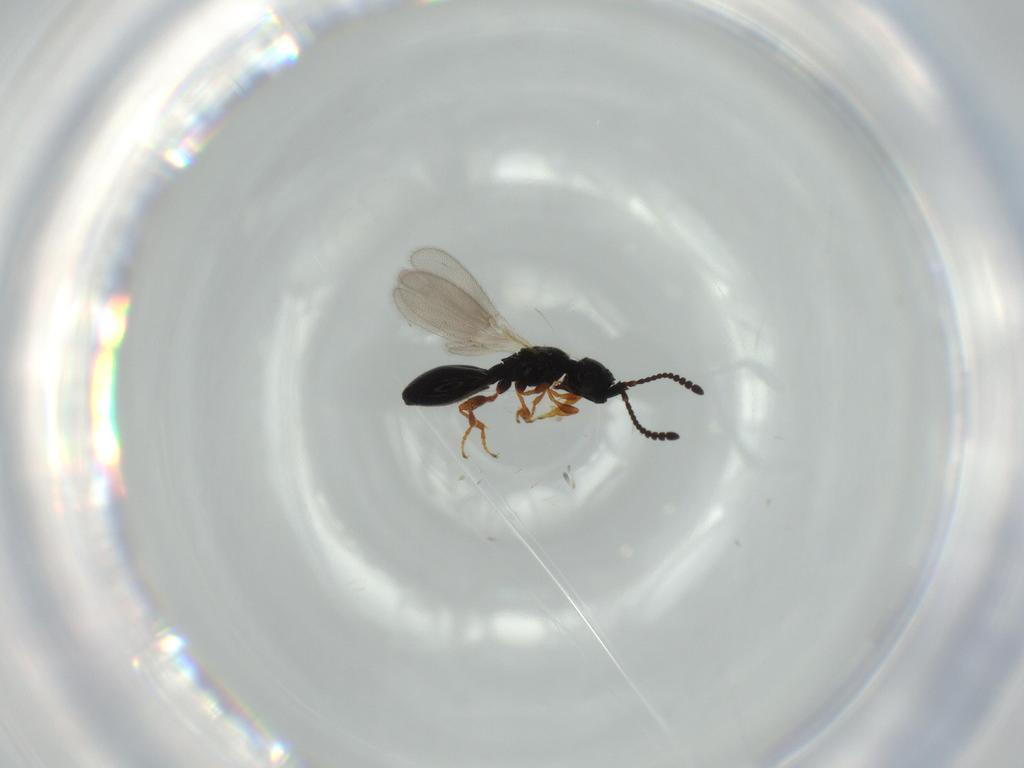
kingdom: Animalia
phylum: Arthropoda
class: Insecta
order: Hymenoptera
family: Diapriidae
